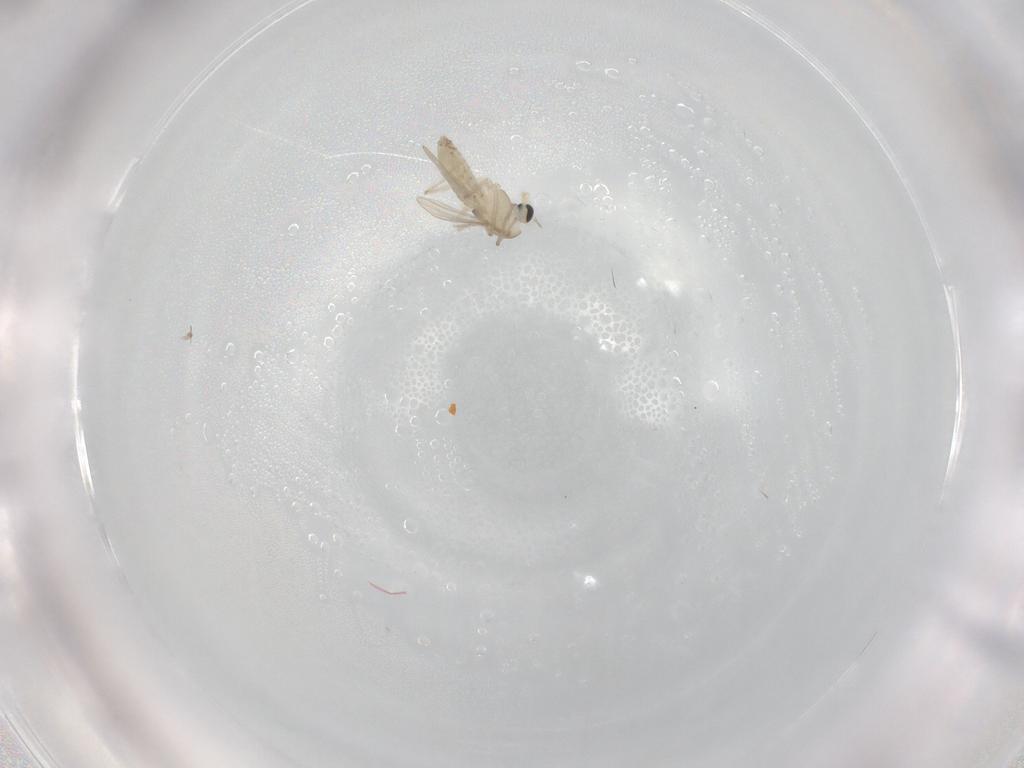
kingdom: Animalia
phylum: Arthropoda
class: Insecta
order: Diptera
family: Chironomidae
